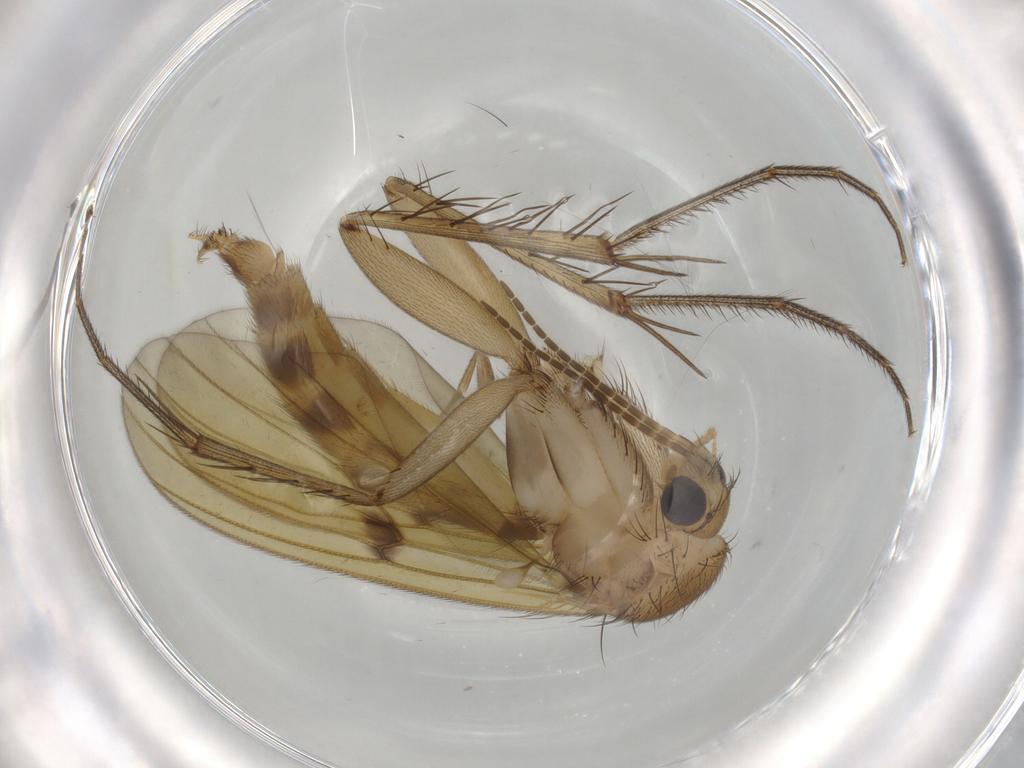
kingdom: Animalia
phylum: Arthropoda
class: Insecta
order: Diptera
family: Mycetophilidae
